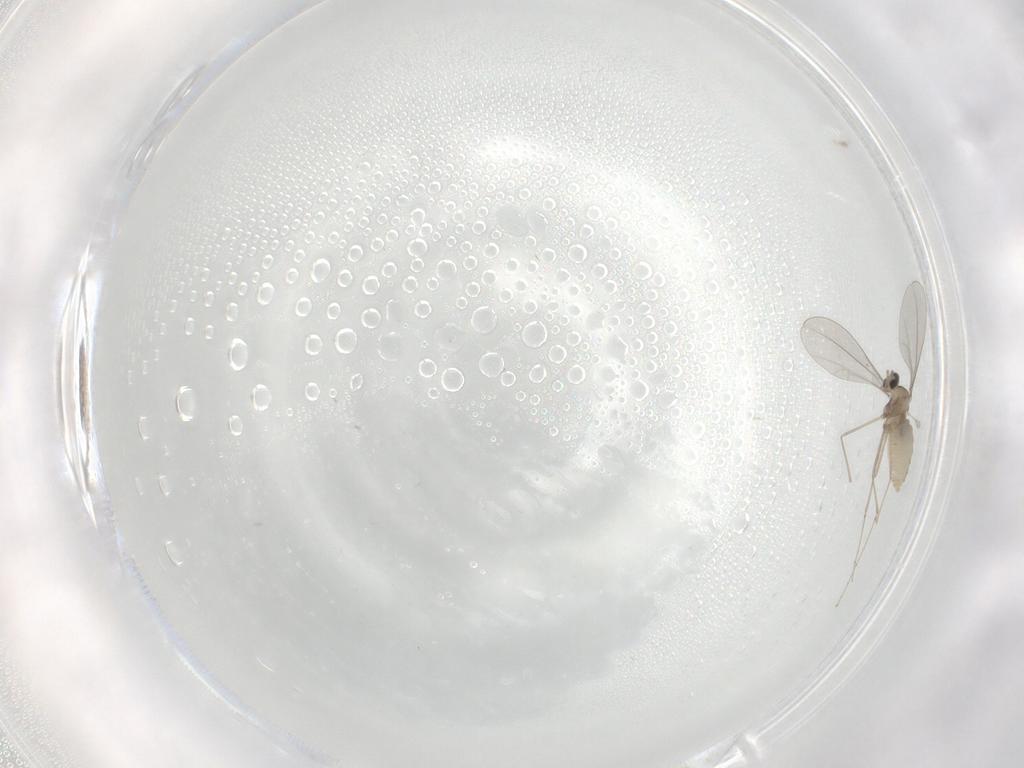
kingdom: Animalia
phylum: Arthropoda
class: Insecta
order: Diptera
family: Cecidomyiidae
